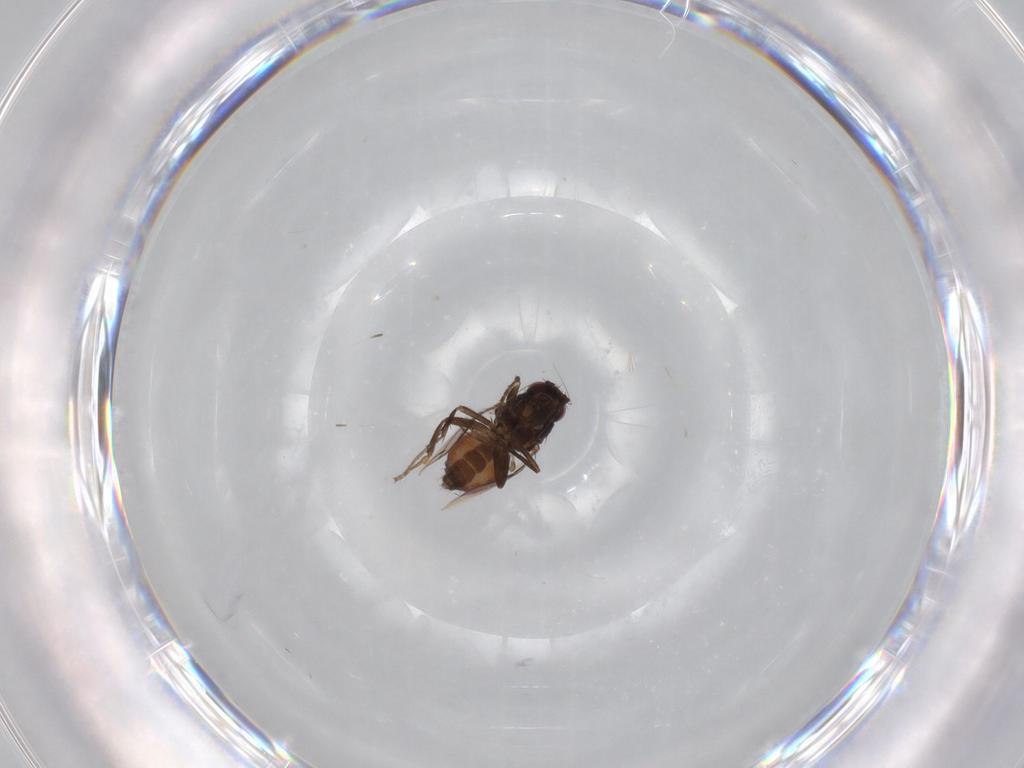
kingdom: Animalia
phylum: Arthropoda
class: Insecta
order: Diptera
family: Sphaeroceridae
